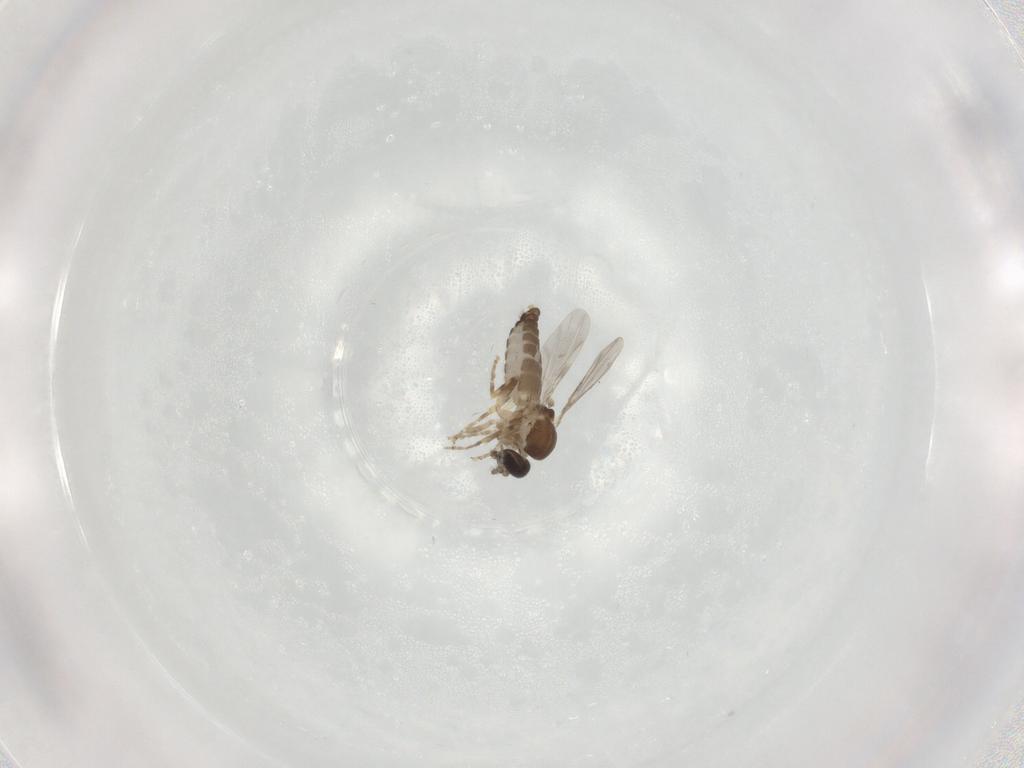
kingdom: Animalia
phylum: Arthropoda
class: Insecta
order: Diptera
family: Ceratopogonidae
